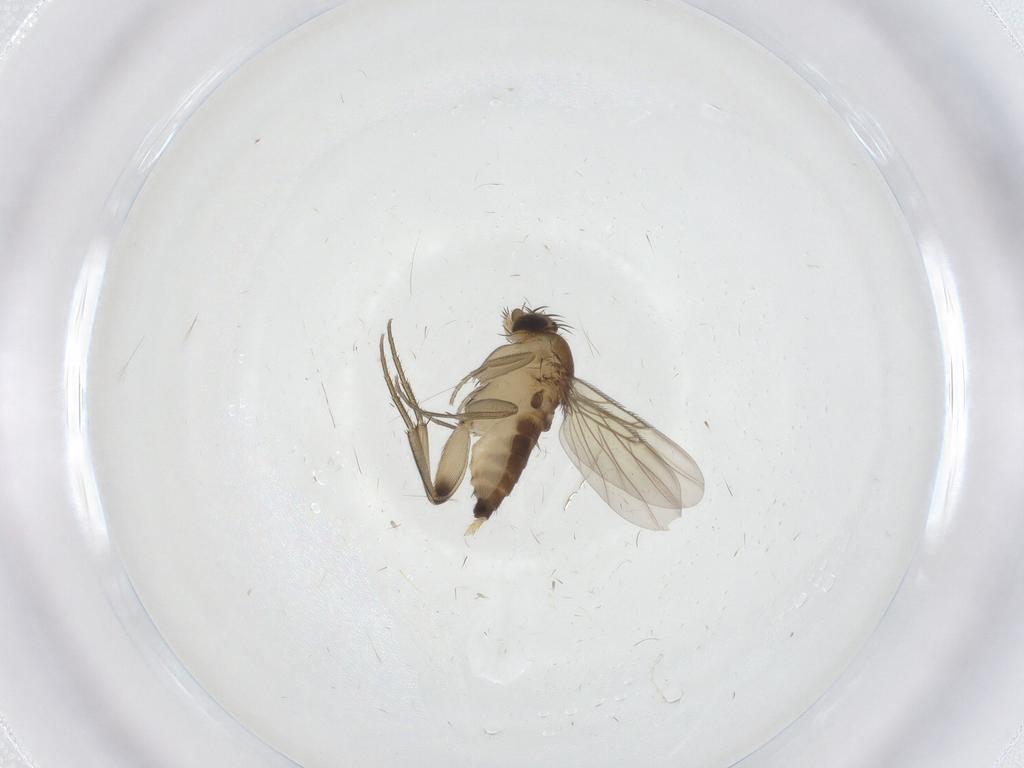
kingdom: Animalia
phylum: Arthropoda
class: Insecta
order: Diptera
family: Phoridae
